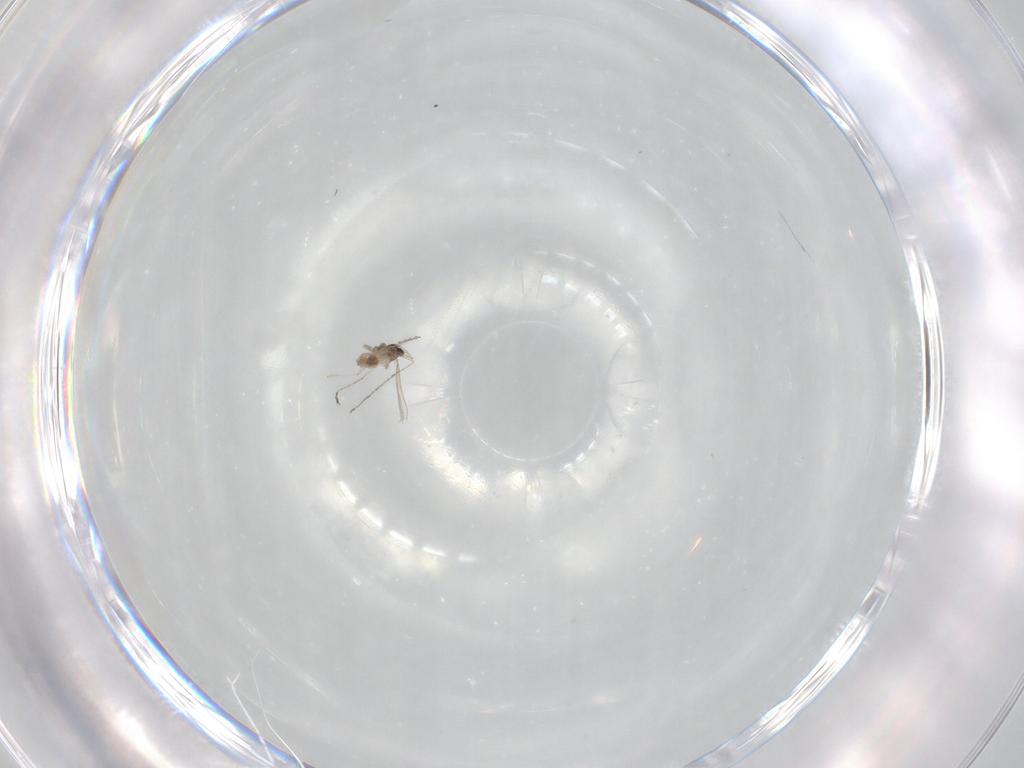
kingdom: Animalia
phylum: Arthropoda
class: Insecta
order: Diptera
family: Cecidomyiidae
